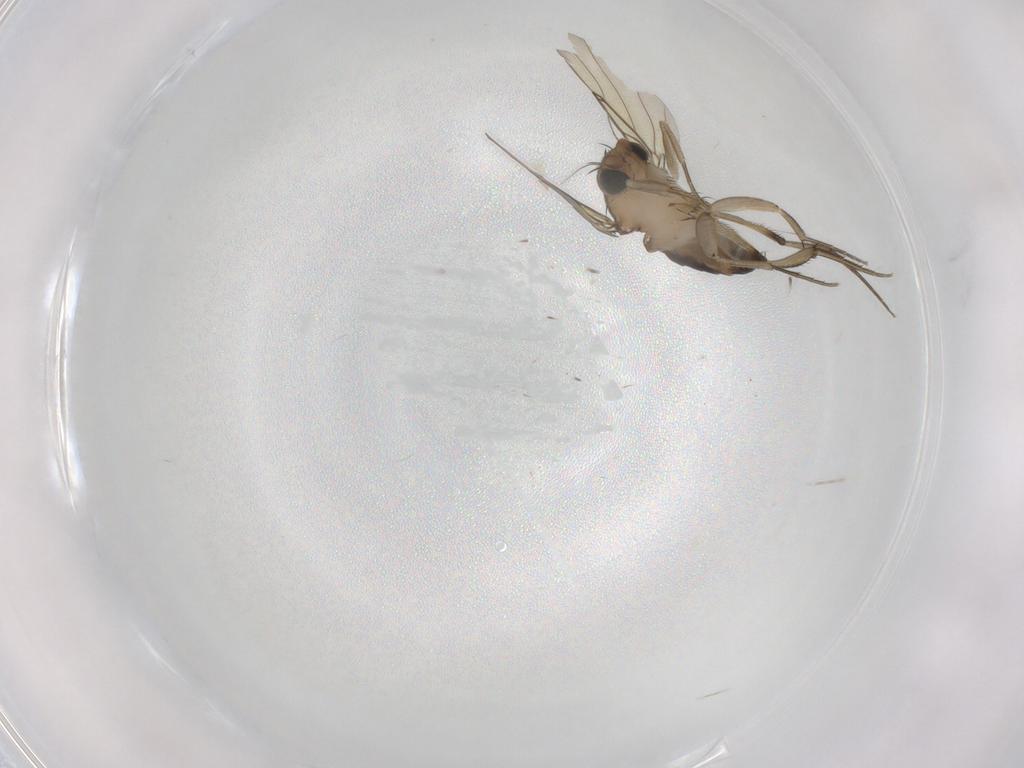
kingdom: Animalia
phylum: Arthropoda
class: Insecta
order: Diptera
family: Phoridae
